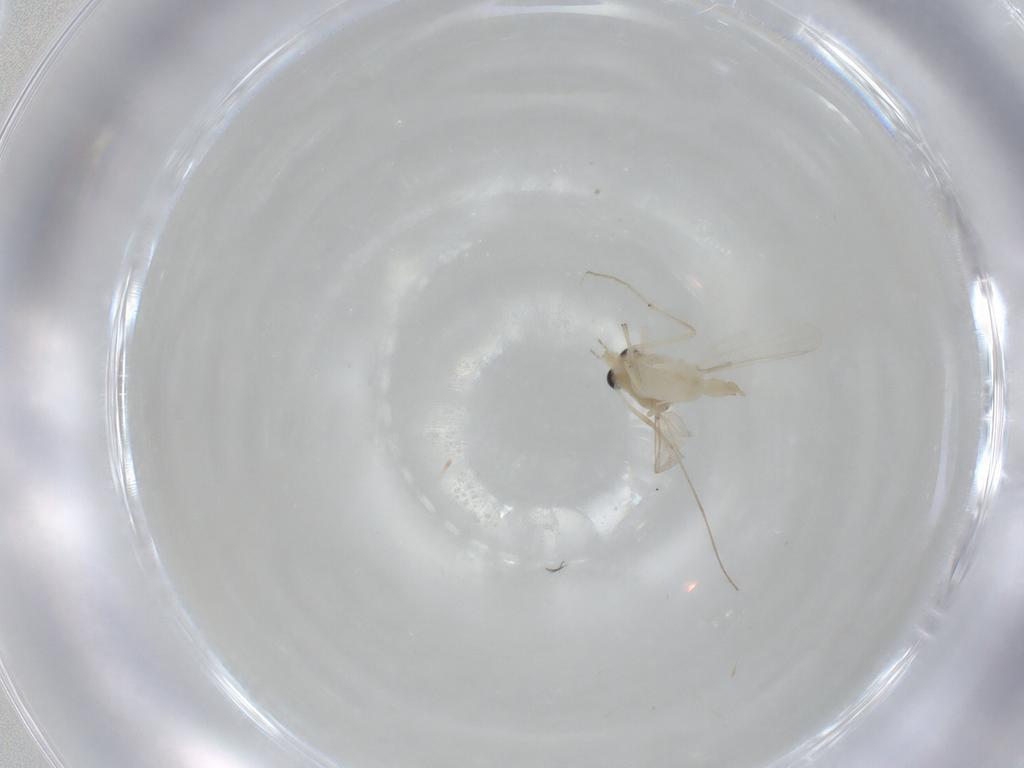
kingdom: Animalia
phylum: Arthropoda
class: Insecta
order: Diptera
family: Chironomidae
